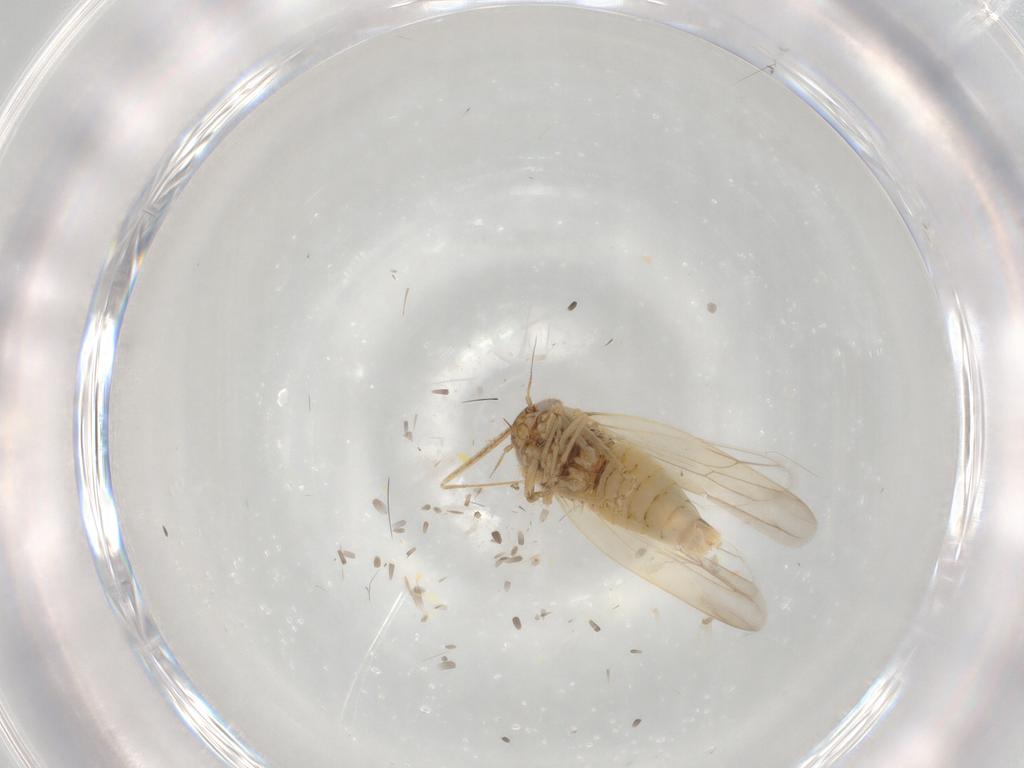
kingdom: Animalia
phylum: Arthropoda
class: Insecta
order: Hemiptera
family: Cicadellidae
